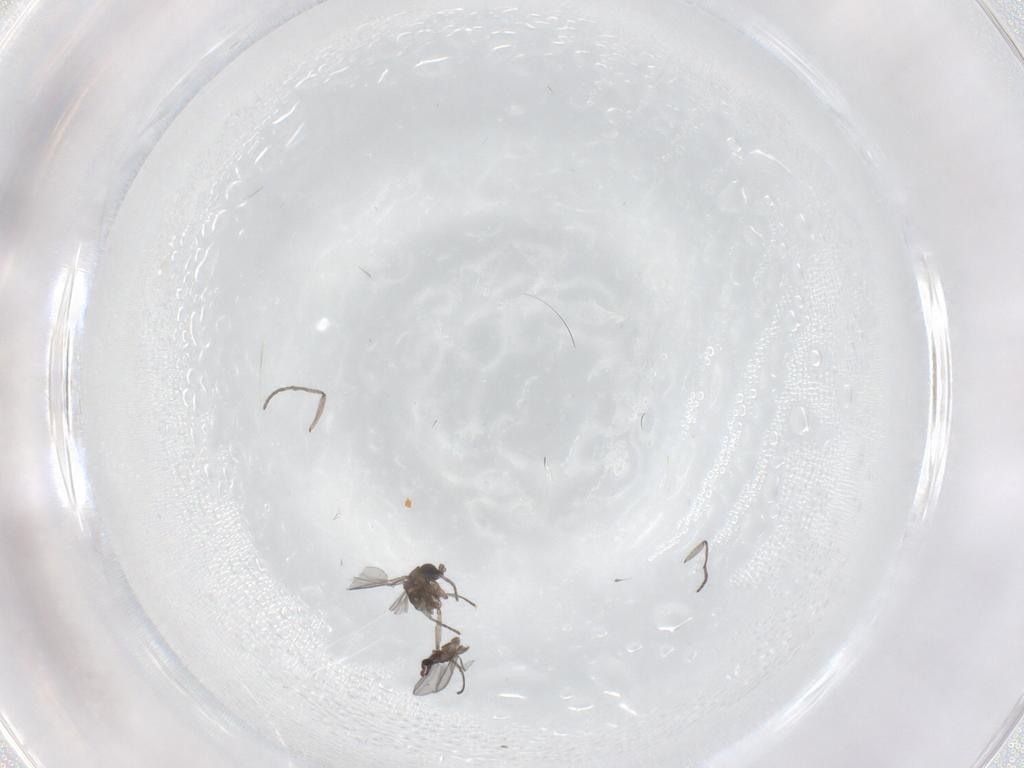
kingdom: Animalia
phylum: Arthropoda
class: Insecta
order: Diptera
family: Sciaridae
